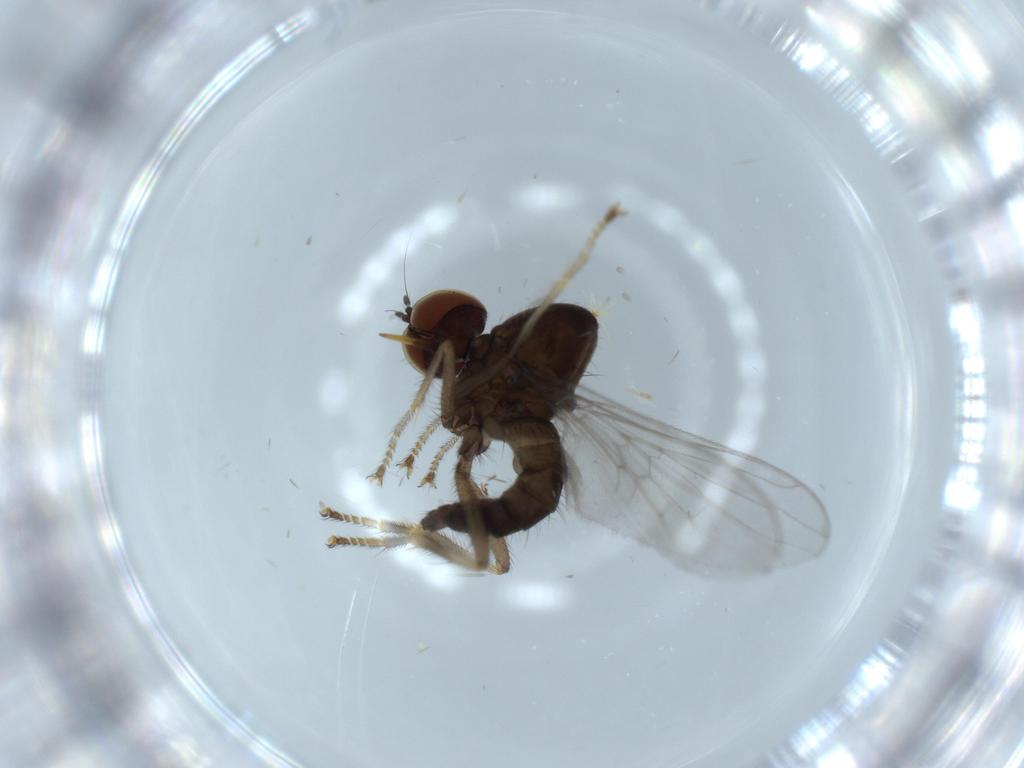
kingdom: Animalia
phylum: Arthropoda
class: Insecta
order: Diptera
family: Hybotidae
